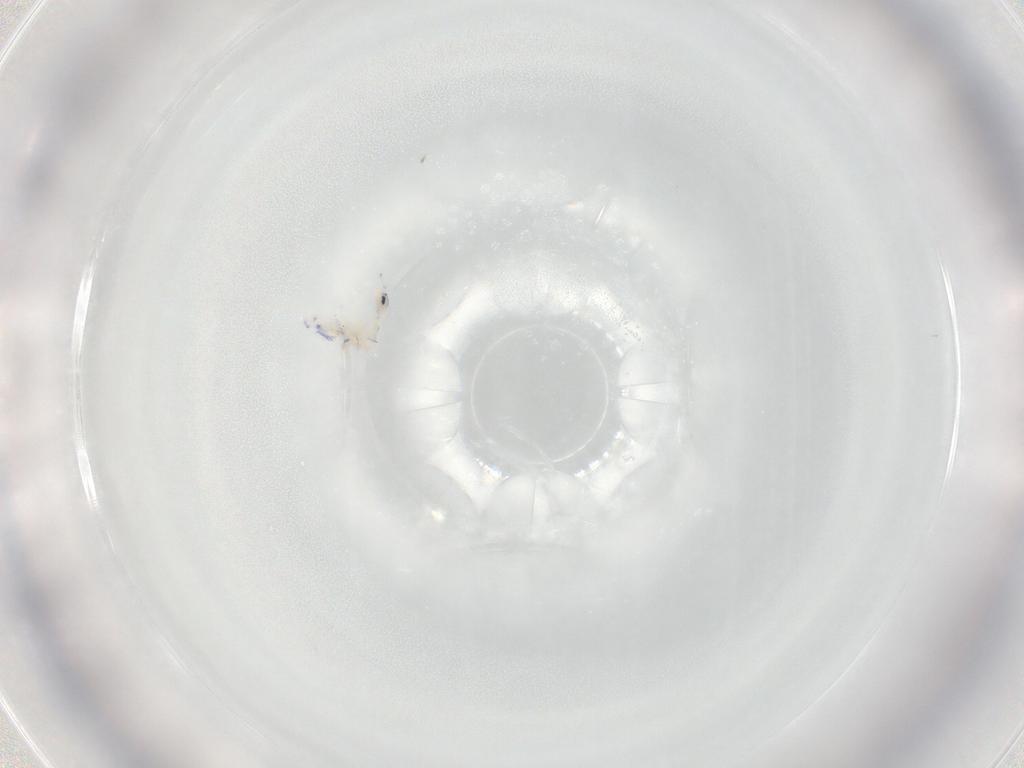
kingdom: Animalia
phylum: Arthropoda
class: Collembola
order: Entomobryomorpha
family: Entomobryidae
